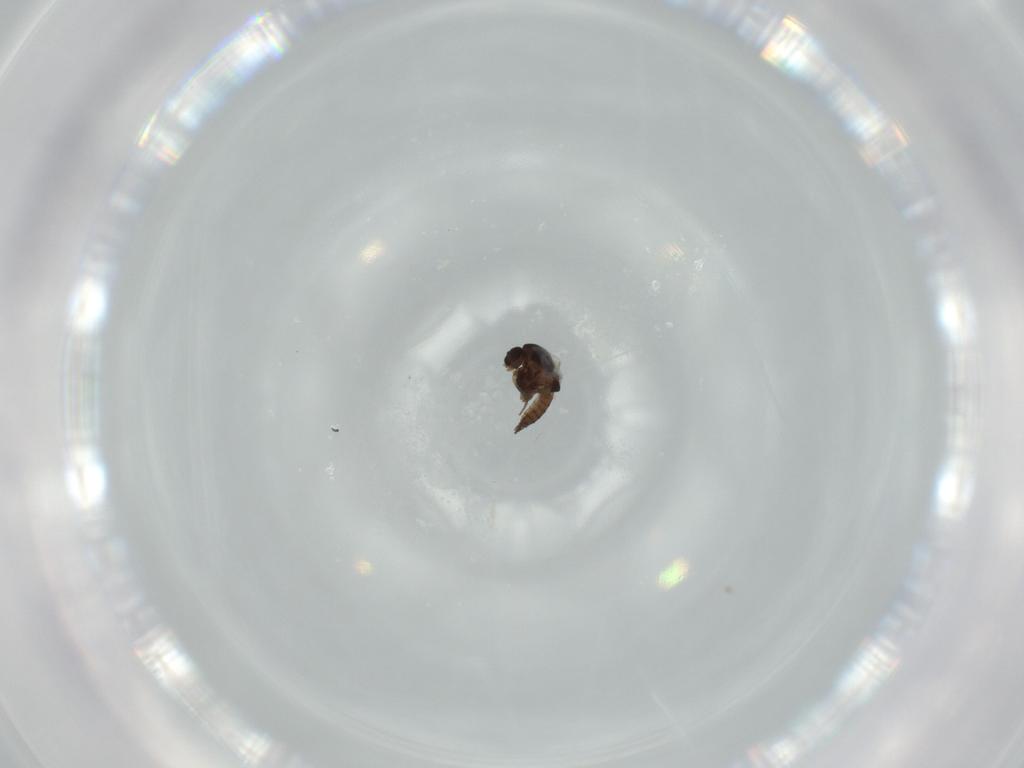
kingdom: Animalia
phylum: Arthropoda
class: Insecta
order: Diptera
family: Chironomidae
